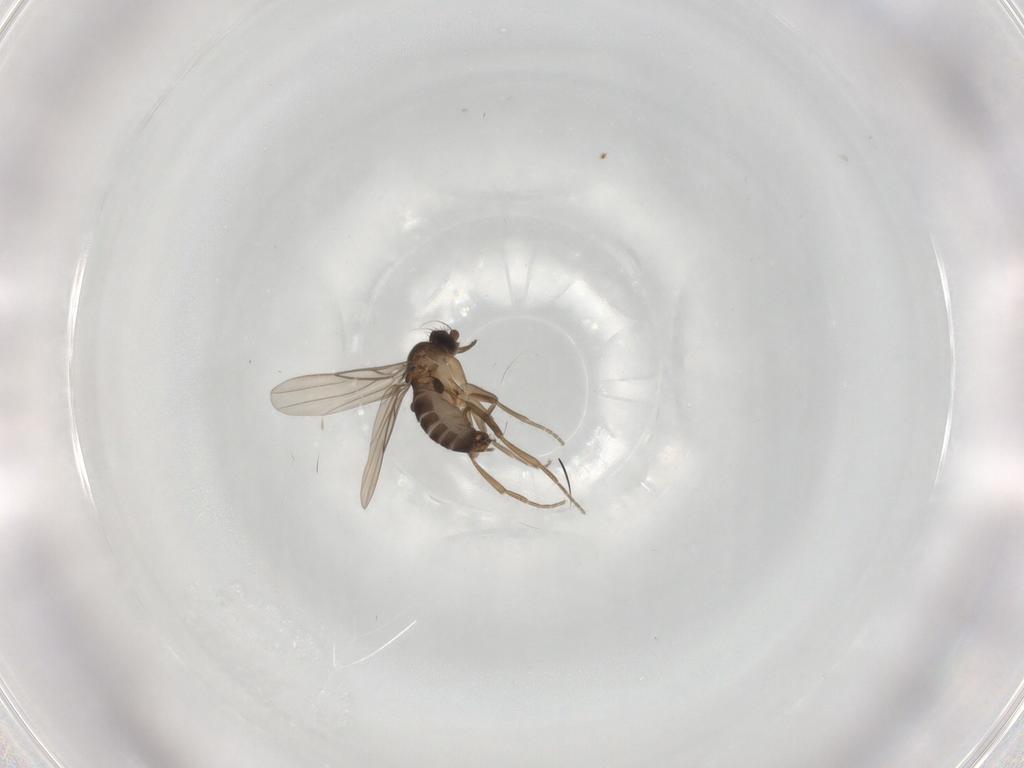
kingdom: Animalia
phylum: Arthropoda
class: Insecta
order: Diptera
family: Phoridae
